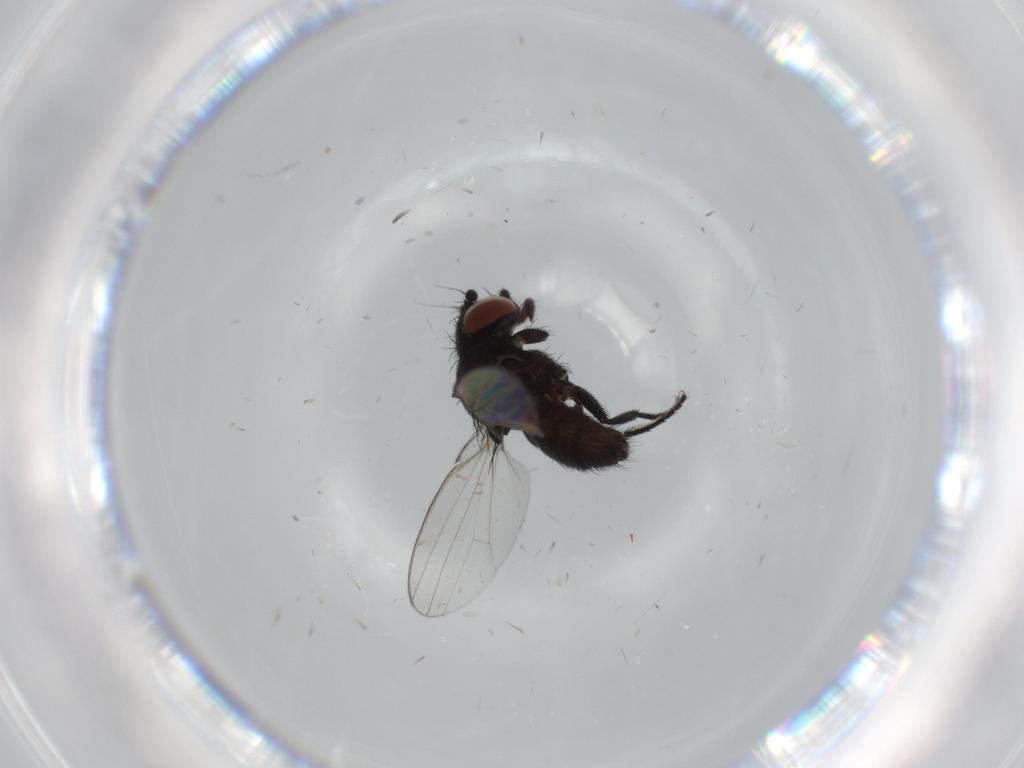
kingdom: Animalia
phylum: Arthropoda
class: Insecta
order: Diptera
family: Milichiidae
